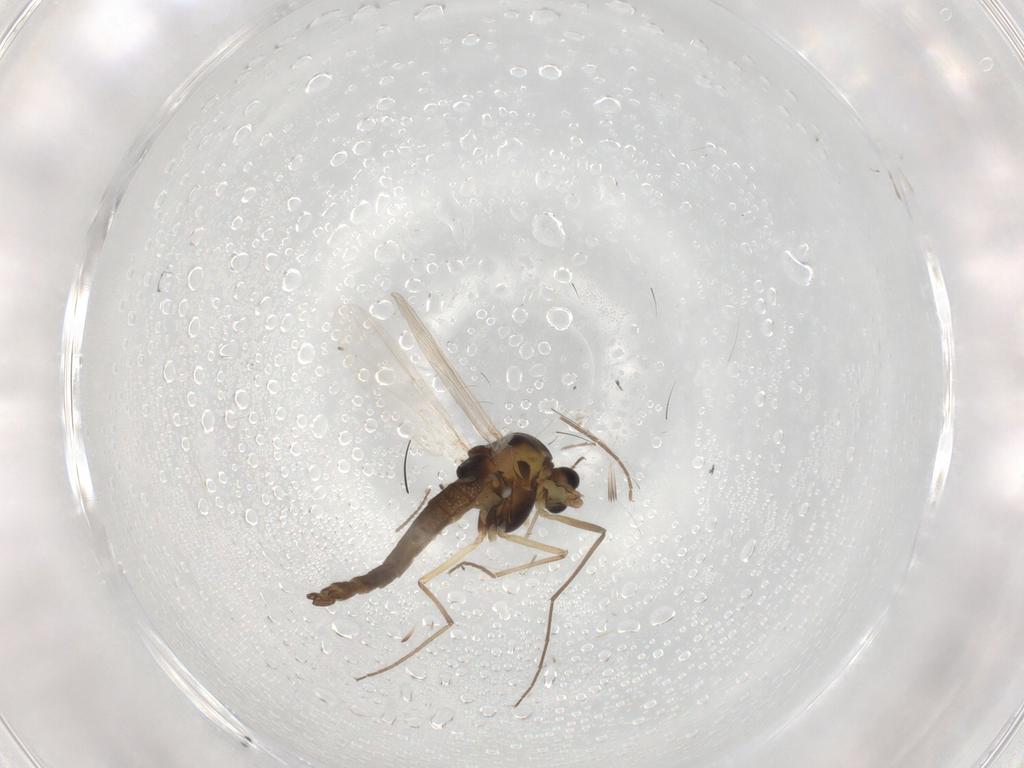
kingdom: Animalia
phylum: Arthropoda
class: Insecta
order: Diptera
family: Chironomidae
